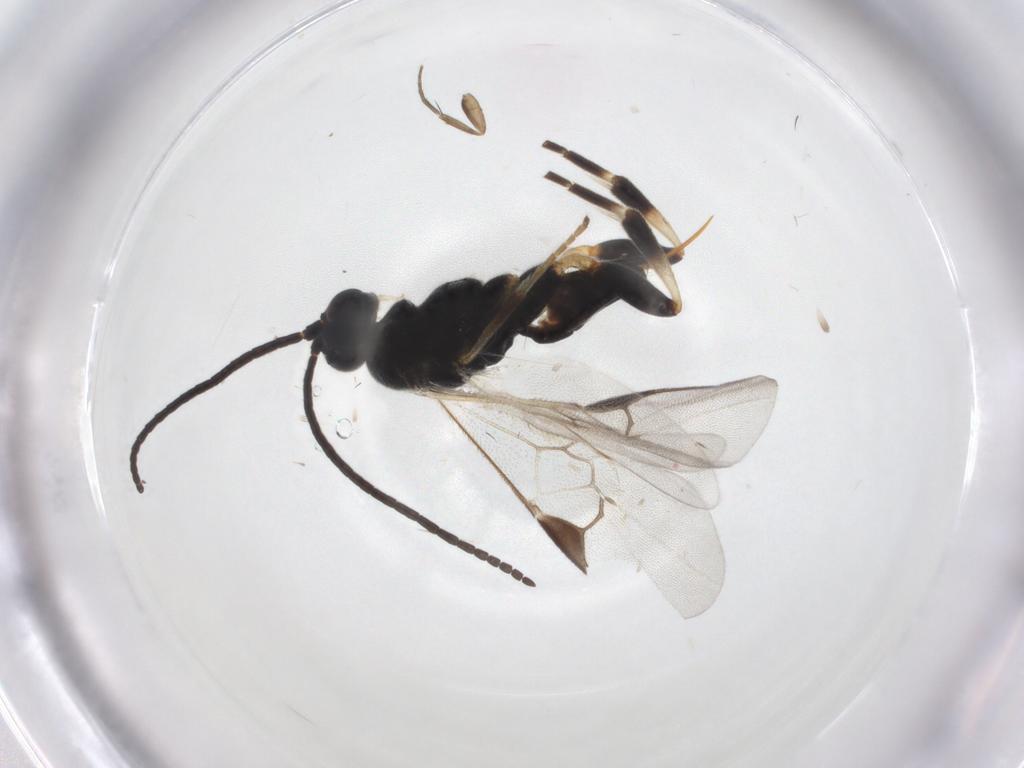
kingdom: Animalia
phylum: Arthropoda
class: Insecta
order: Hymenoptera
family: Braconidae
